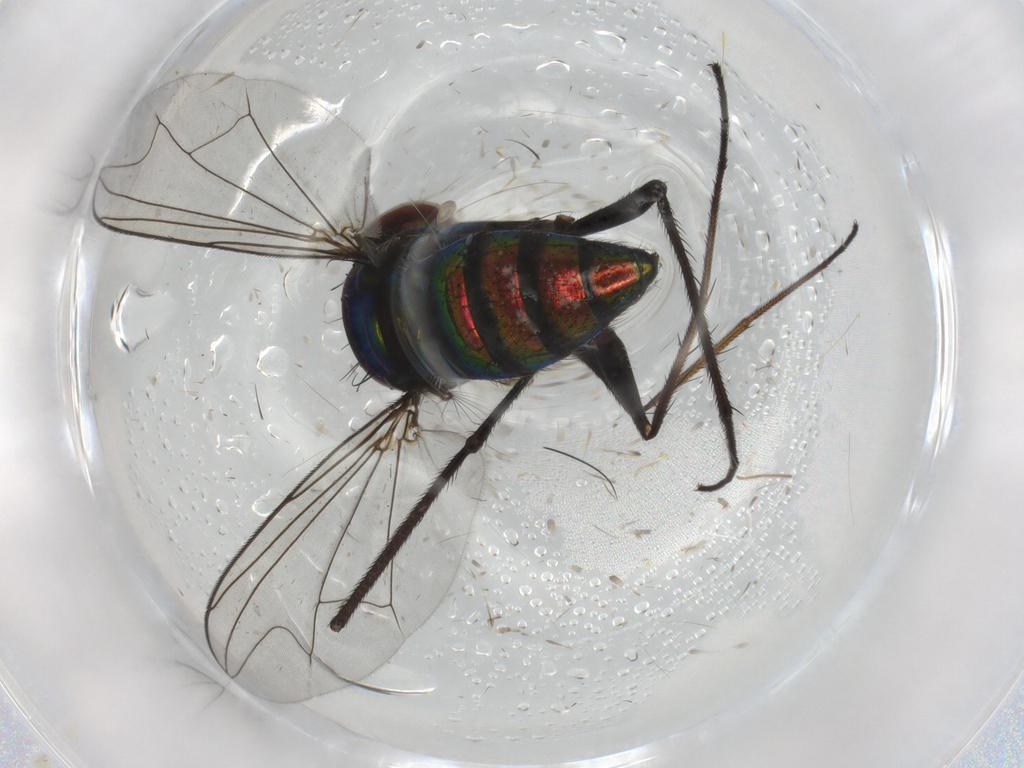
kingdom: Animalia
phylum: Arthropoda
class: Insecta
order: Diptera
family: Dolichopodidae
